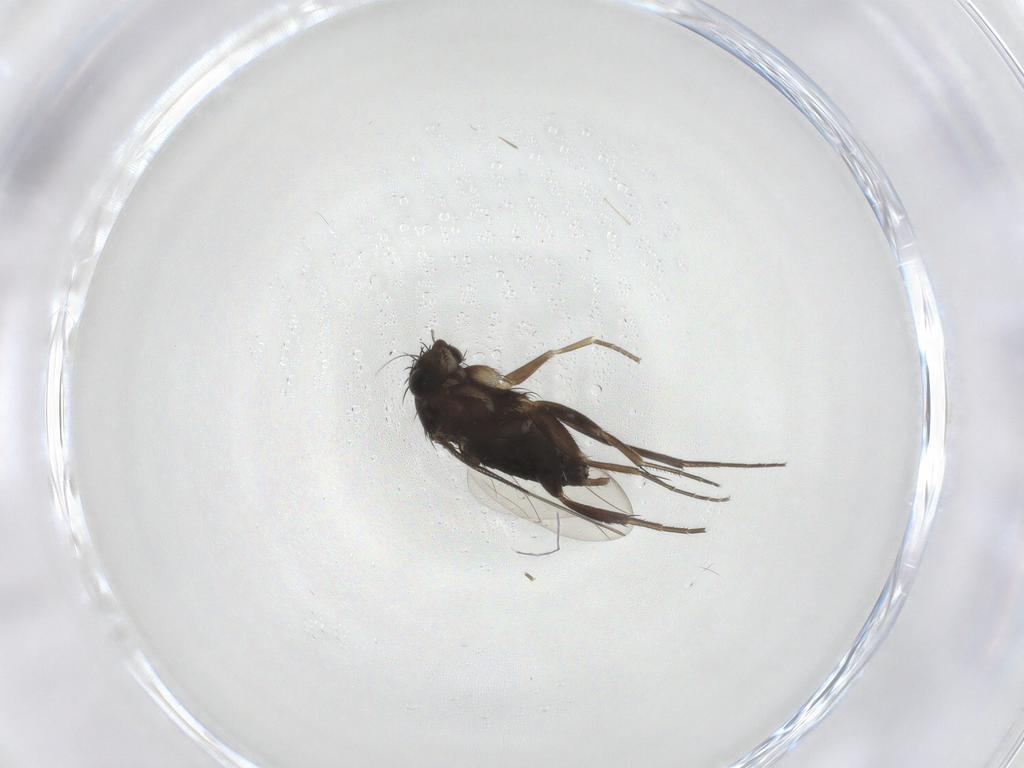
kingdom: Animalia
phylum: Arthropoda
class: Insecta
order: Diptera
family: Phoridae
